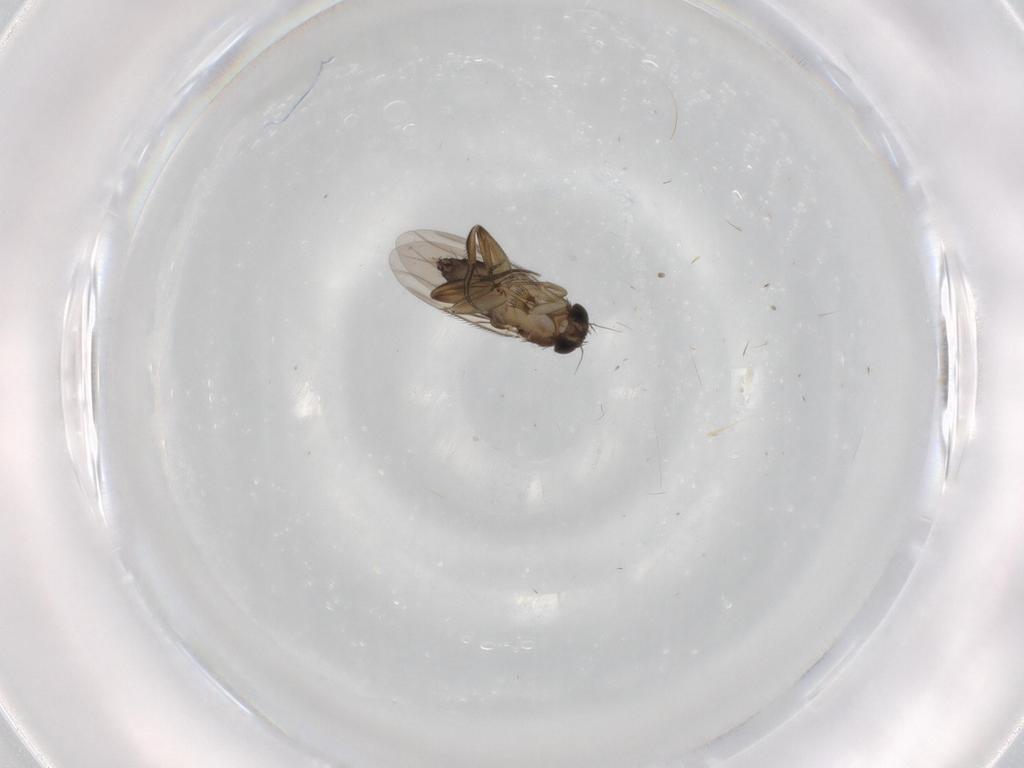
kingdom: Animalia
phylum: Arthropoda
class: Insecta
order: Diptera
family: Phoridae
